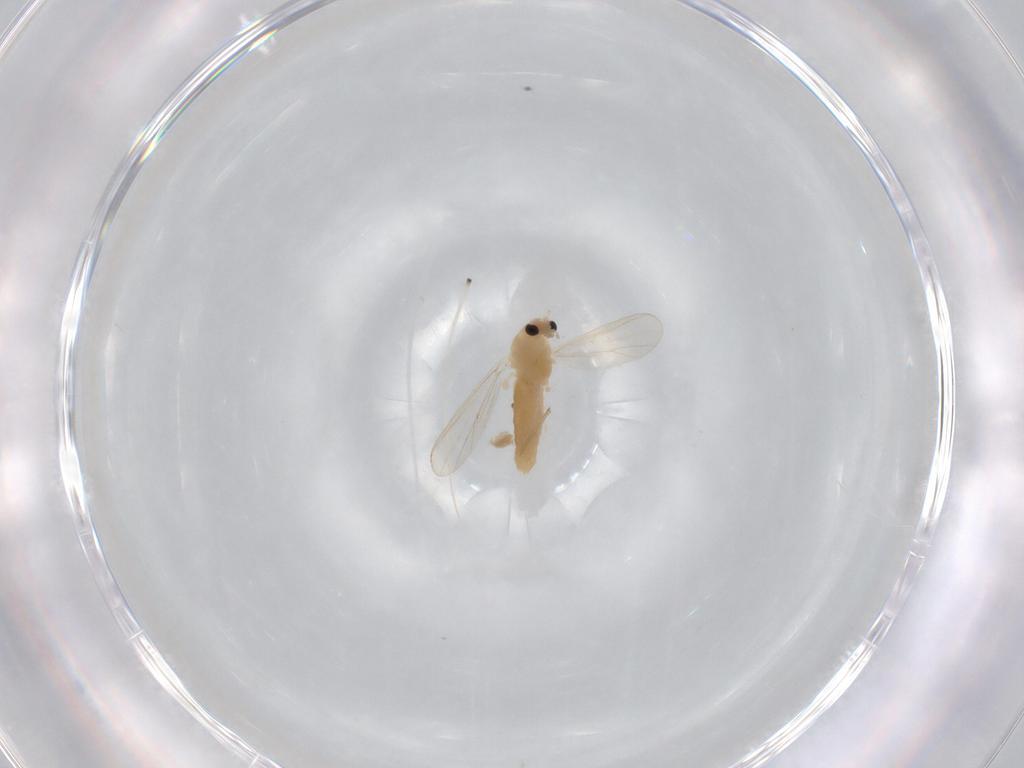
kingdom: Animalia
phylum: Arthropoda
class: Insecta
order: Diptera
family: Chironomidae
